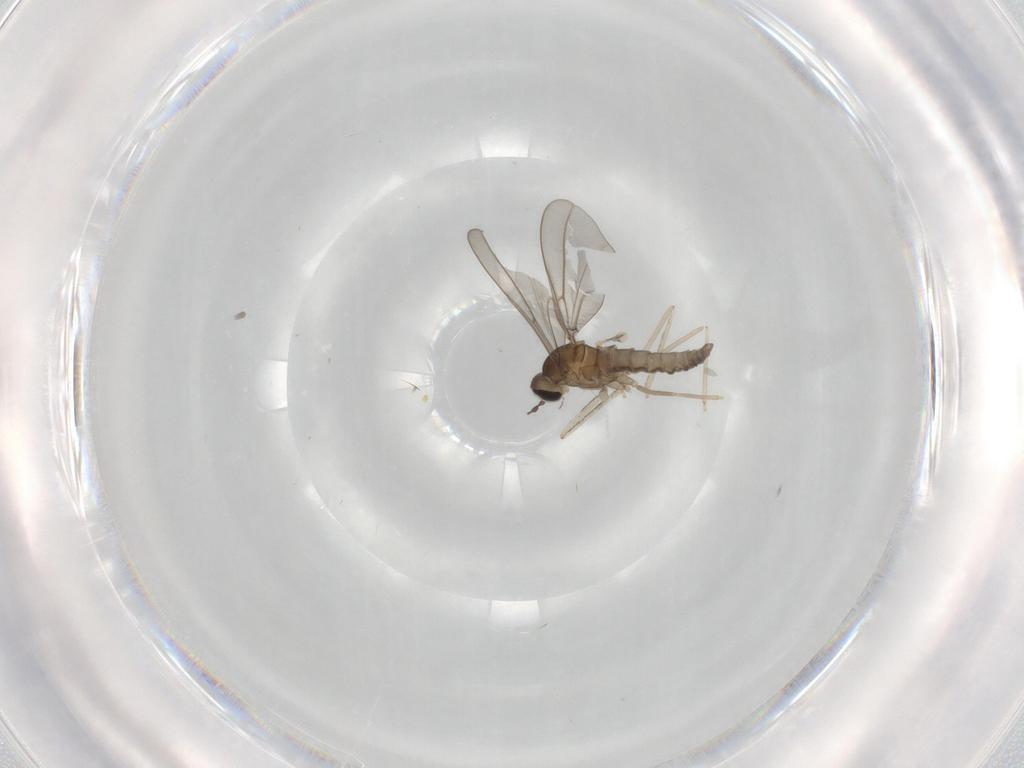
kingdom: Animalia
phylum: Arthropoda
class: Insecta
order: Diptera
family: Cecidomyiidae
